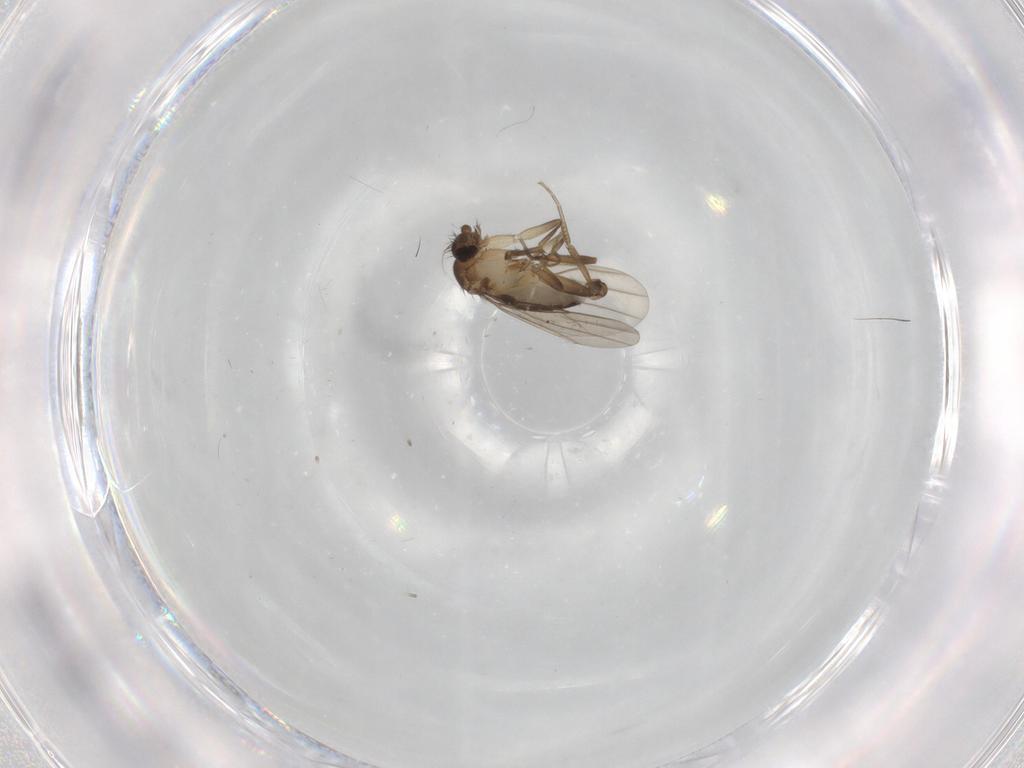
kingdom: Animalia
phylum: Arthropoda
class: Insecta
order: Diptera
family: Phoridae
